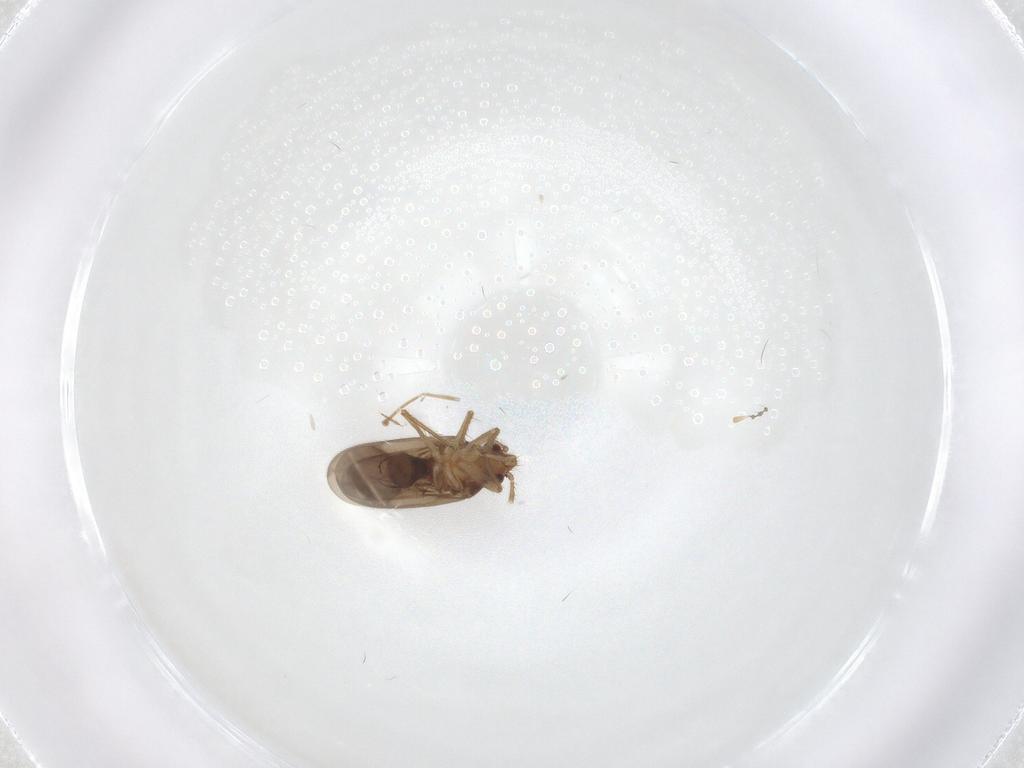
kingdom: Animalia
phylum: Arthropoda
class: Insecta
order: Hemiptera
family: Ceratocombidae
